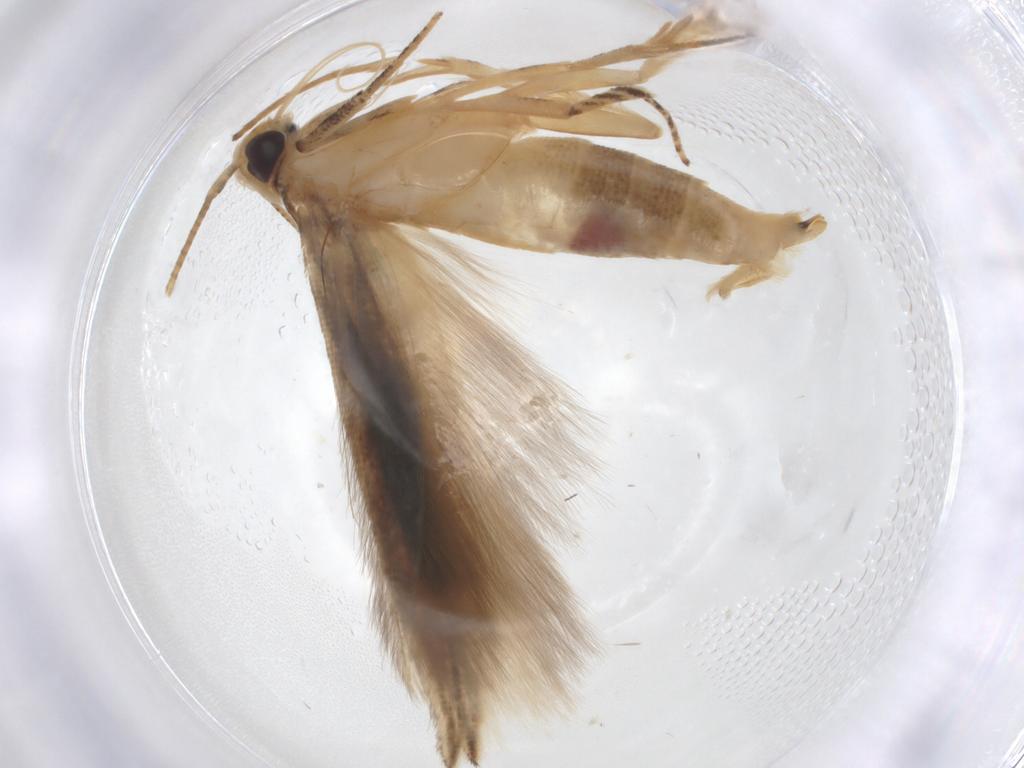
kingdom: Animalia
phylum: Arthropoda
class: Insecta
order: Lepidoptera
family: Momphidae
